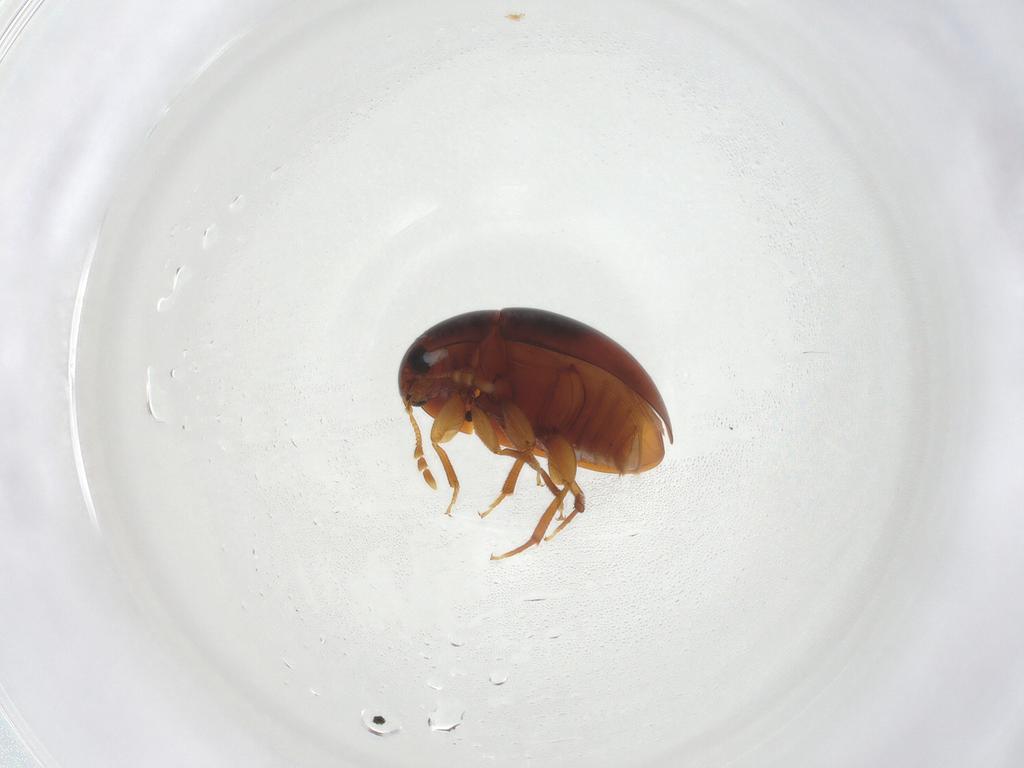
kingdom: Animalia
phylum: Arthropoda
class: Insecta
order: Coleoptera
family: Phalacridae
